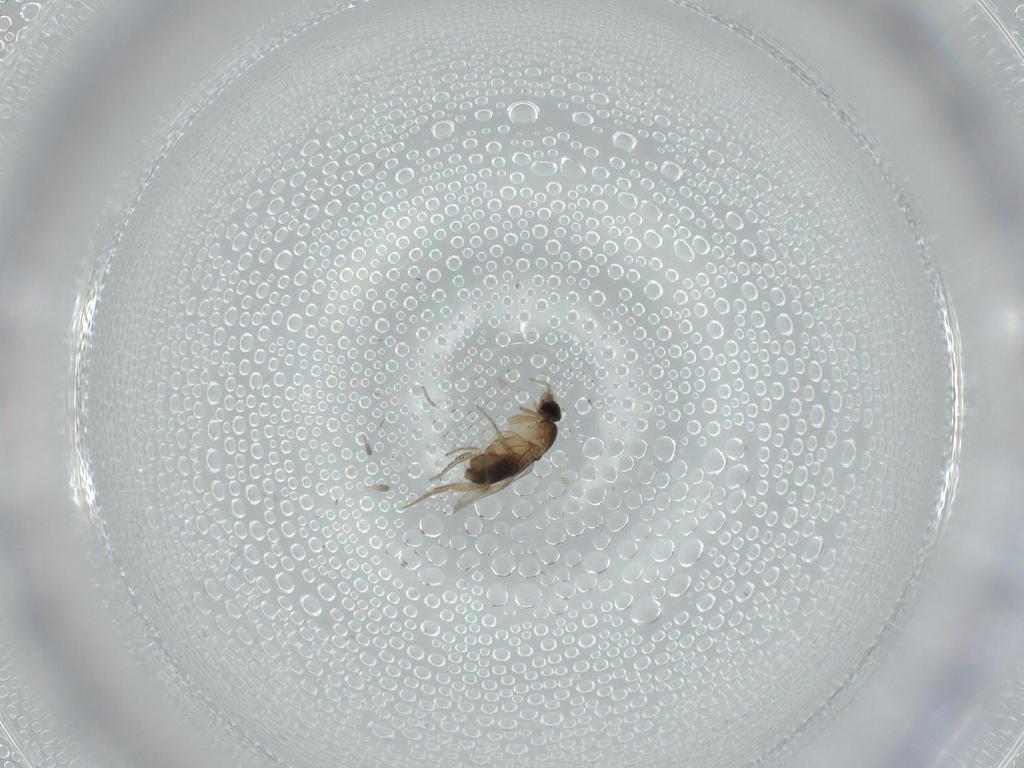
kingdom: Animalia
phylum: Arthropoda
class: Insecta
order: Diptera
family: Phoridae
